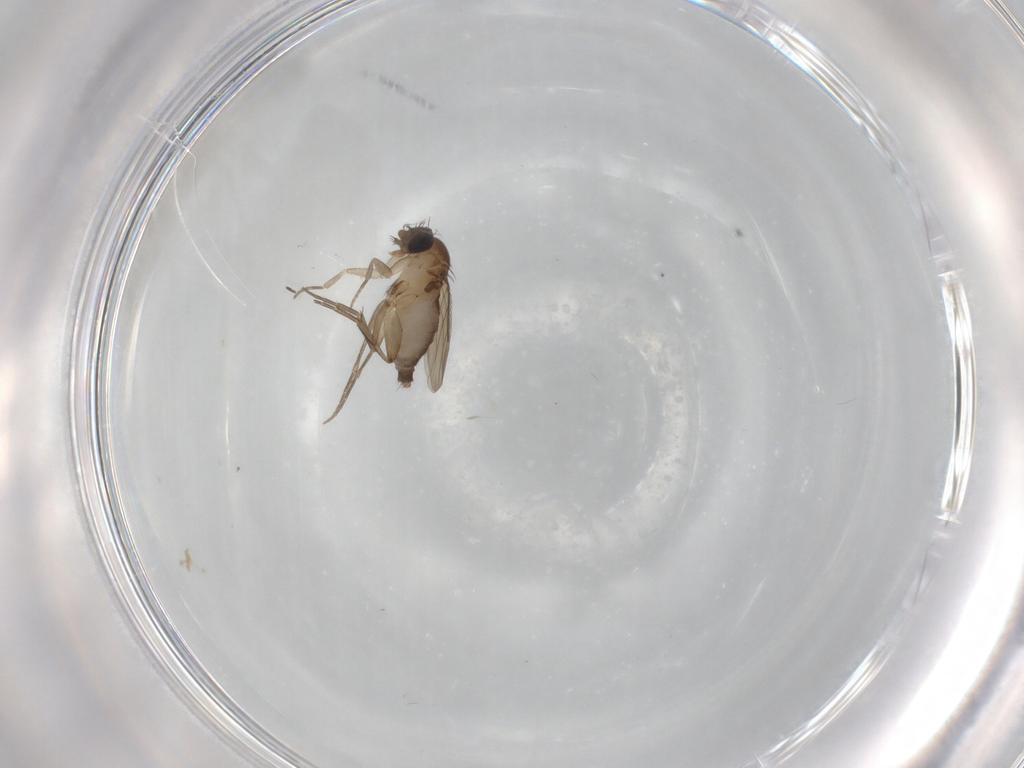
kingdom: Animalia
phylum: Arthropoda
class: Insecta
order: Diptera
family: Phoridae
